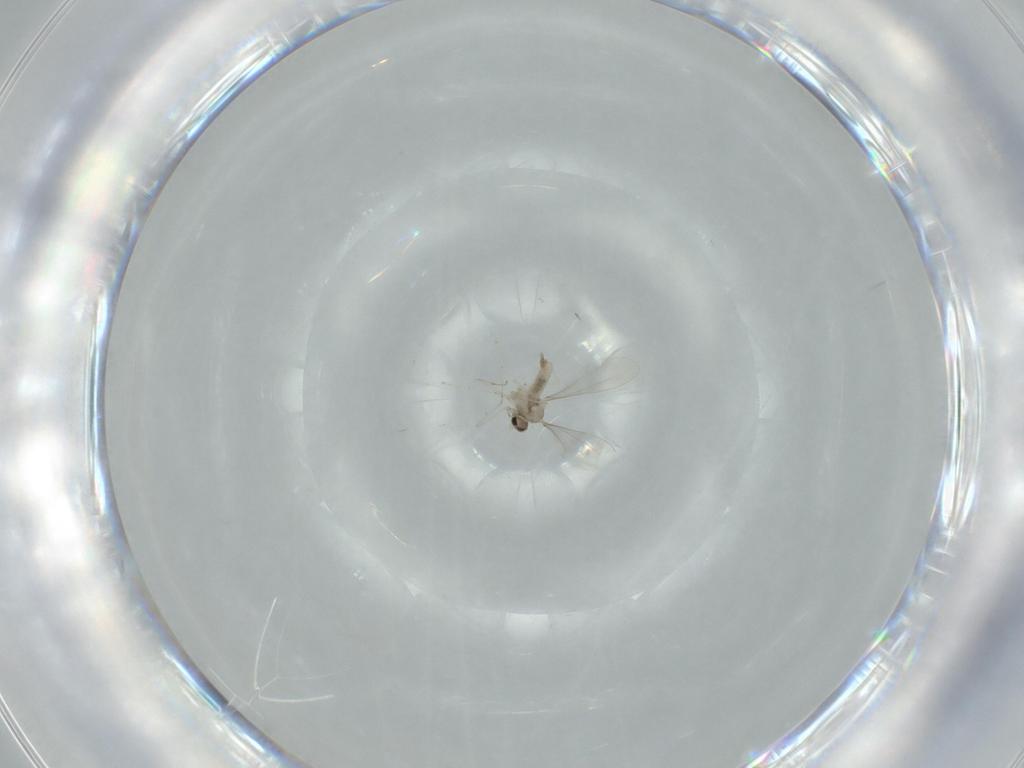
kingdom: Animalia
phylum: Arthropoda
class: Insecta
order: Diptera
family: Cecidomyiidae
